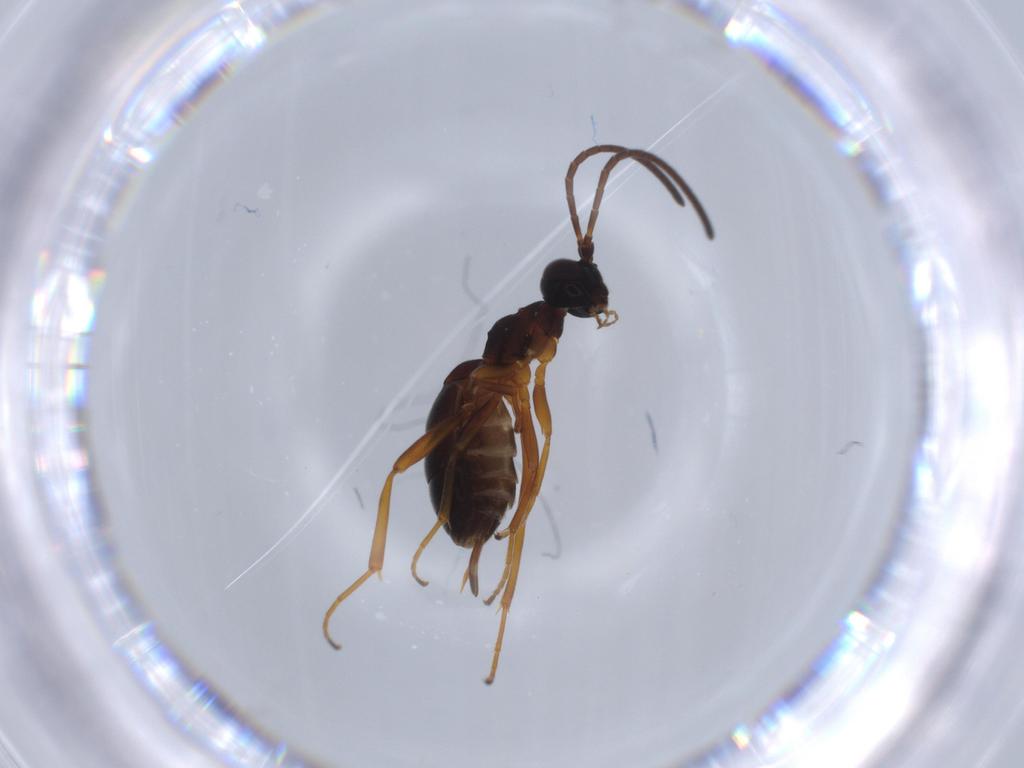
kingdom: Animalia
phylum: Arthropoda
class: Insecta
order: Hymenoptera
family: Ichneumonidae
